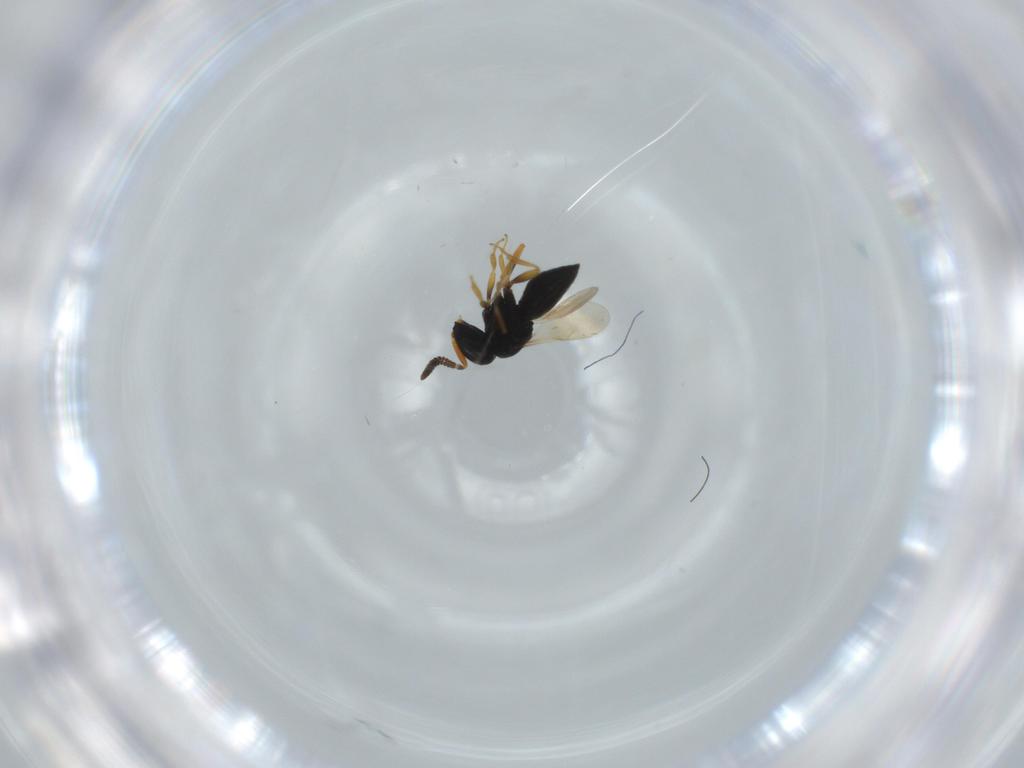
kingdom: Animalia
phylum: Arthropoda
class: Insecta
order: Hymenoptera
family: Scelionidae
